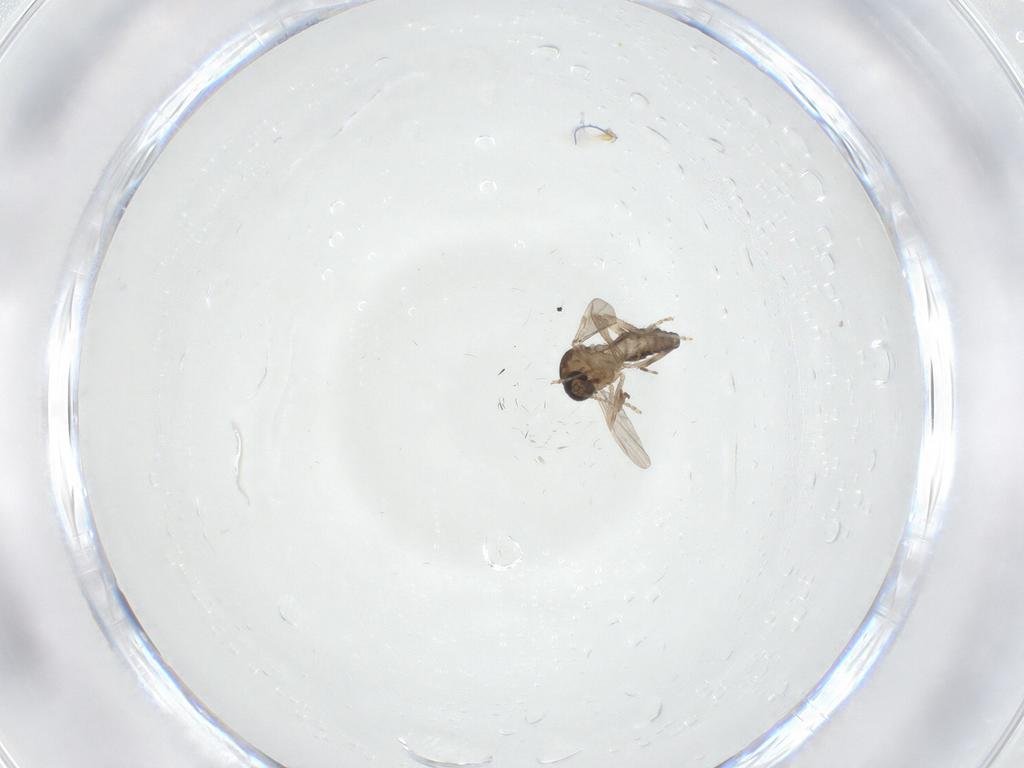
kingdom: Animalia
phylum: Arthropoda
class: Insecta
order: Diptera
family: Ceratopogonidae
